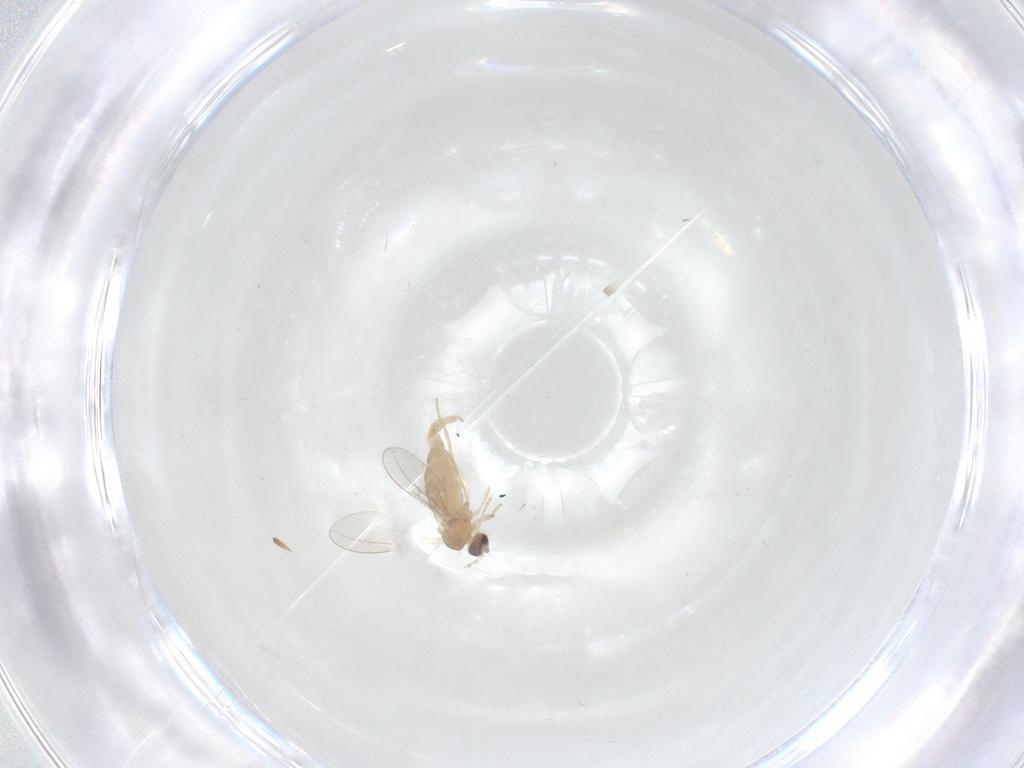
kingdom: Animalia
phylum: Arthropoda
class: Insecta
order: Diptera
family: Cecidomyiidae
